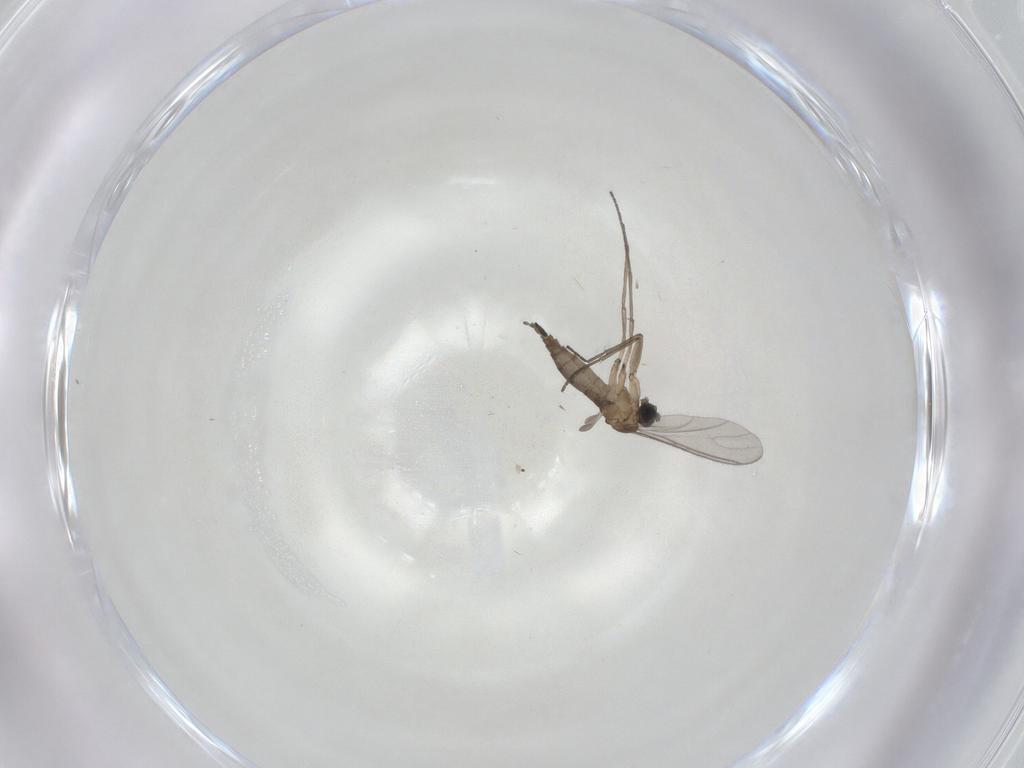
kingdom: Animalia
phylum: Arthropoda
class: Insecta
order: Diptera
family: Sciaridae
